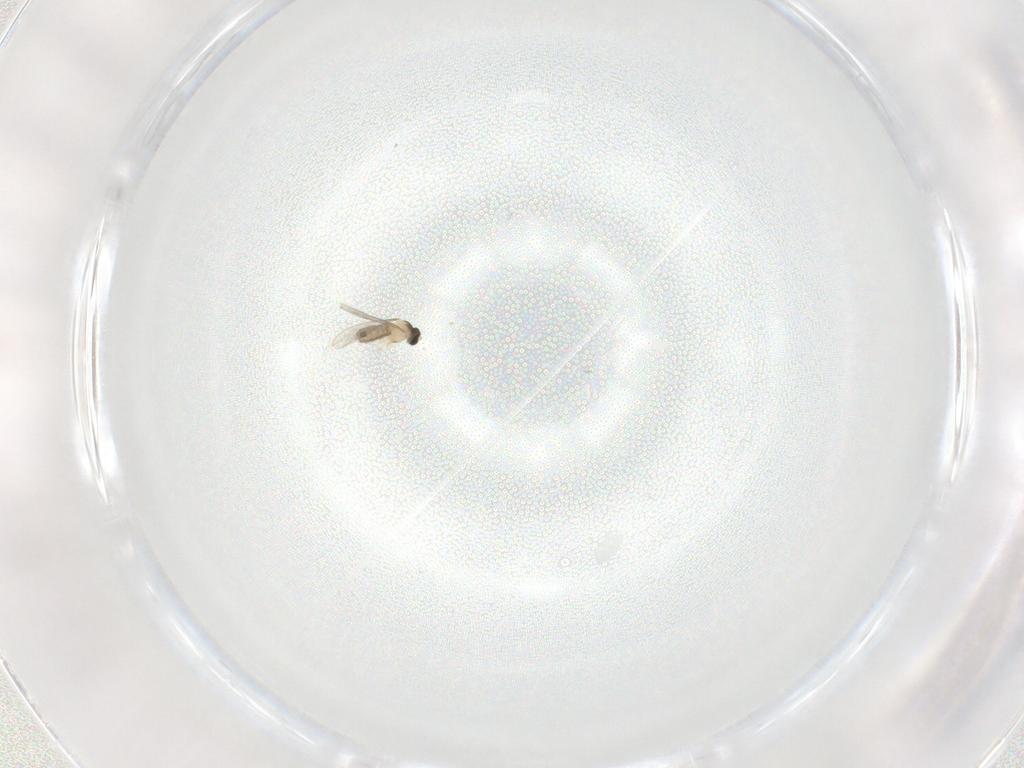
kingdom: Animalia
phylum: Arthropoda
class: Insecta
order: Diptera
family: Cecidomyiidae
